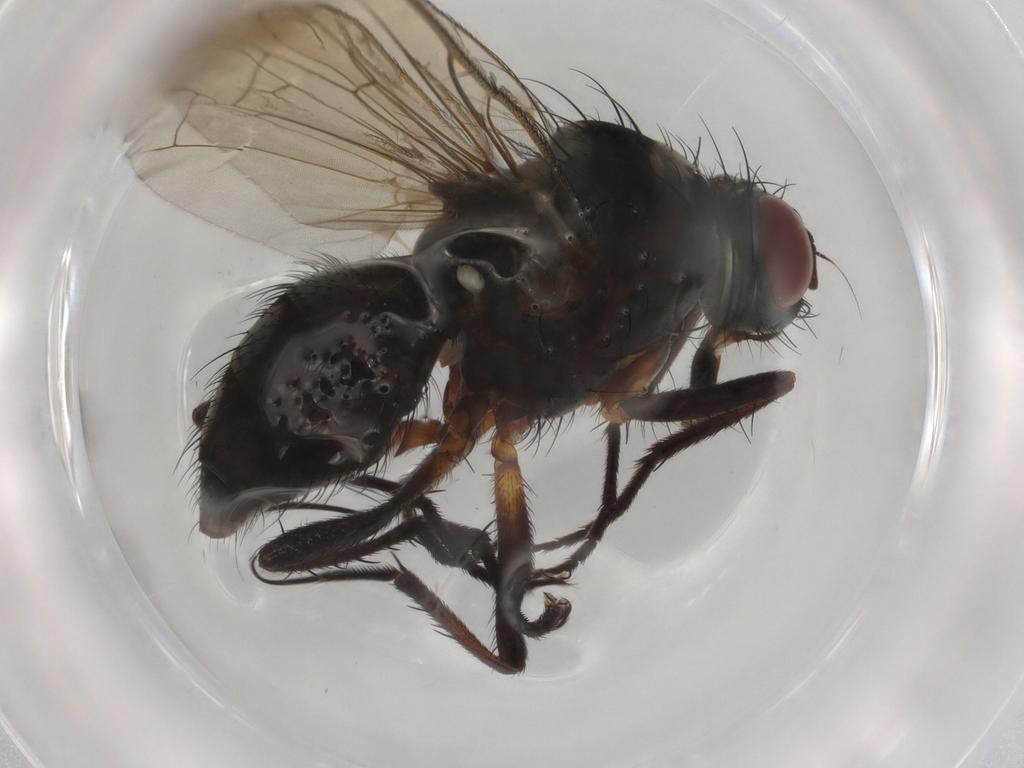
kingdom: Animalia
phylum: Arthropoda
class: Insecta
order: Diptera
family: Anthomyiidae
